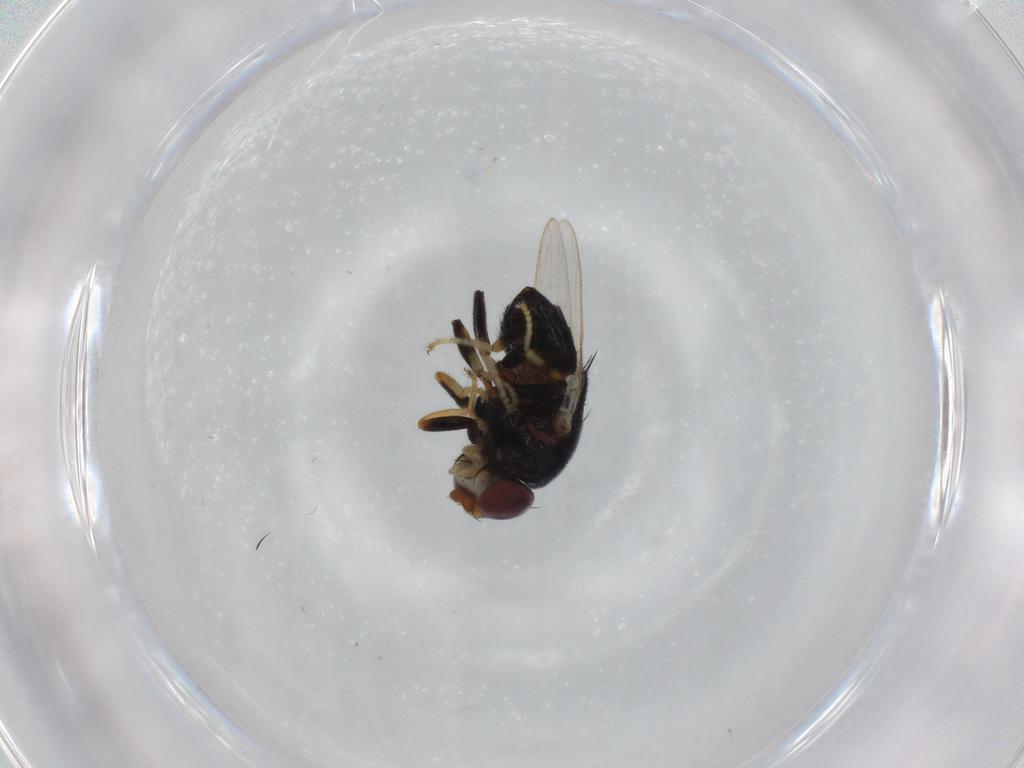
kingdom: Animalia
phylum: Arthropoda
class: Insecta
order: Diptera
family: Chloropidae
